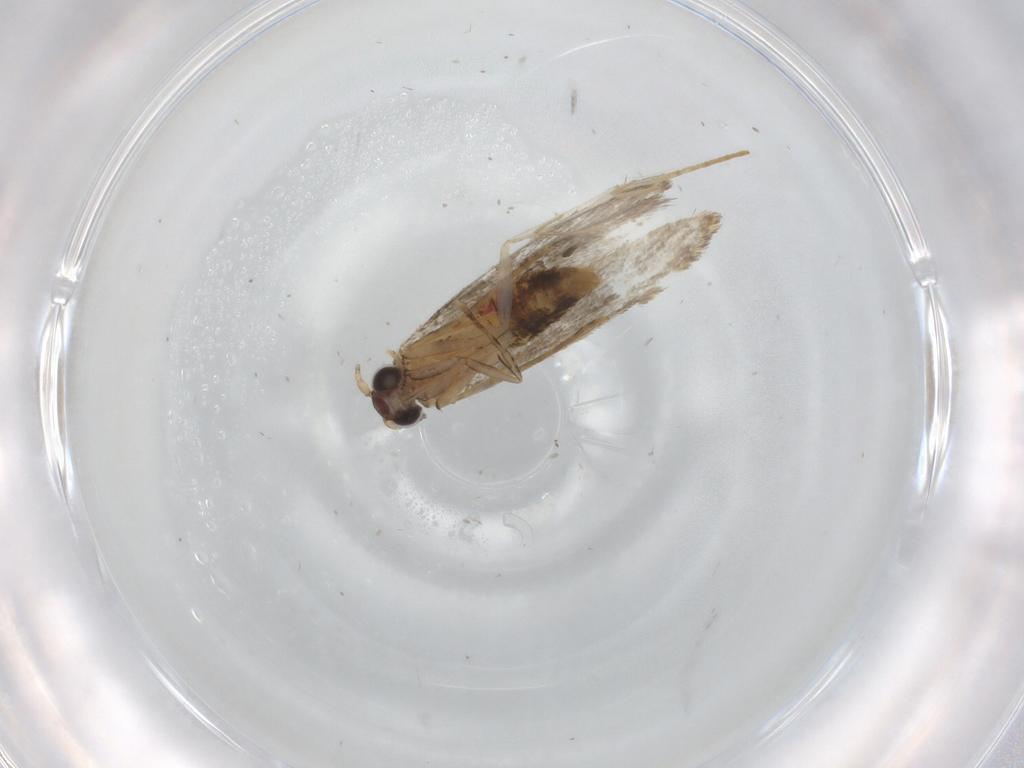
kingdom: Animalia
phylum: Arthropoda
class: Insecta
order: Lepidoptera
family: Tineidae
